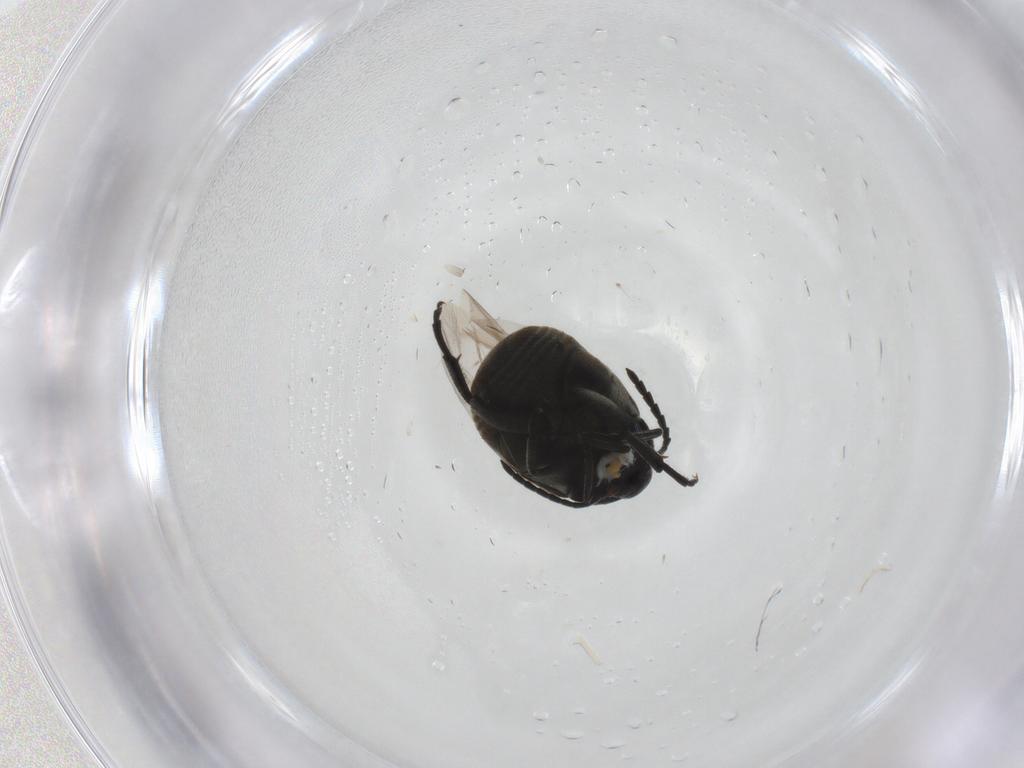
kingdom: Animalia
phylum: Arthropoda
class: Insecta
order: Coleoptera
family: Chrysomelidae
